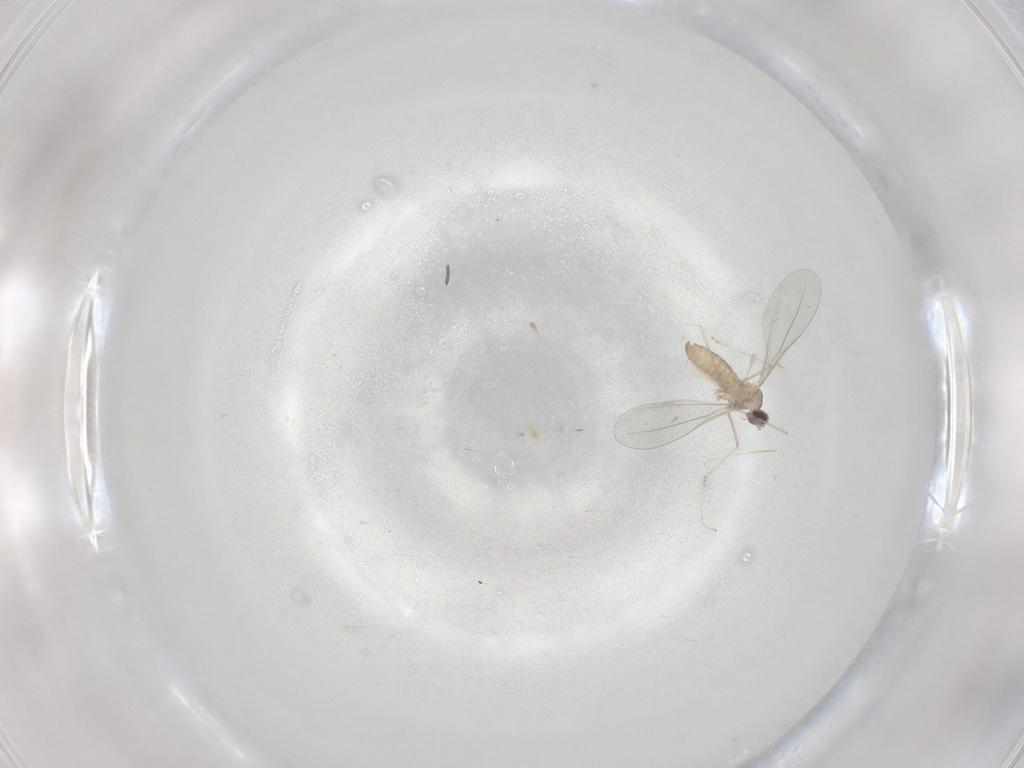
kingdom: Animalia
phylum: Arthropoda
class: Insecta
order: Diptera
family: Cecidomyiidae
